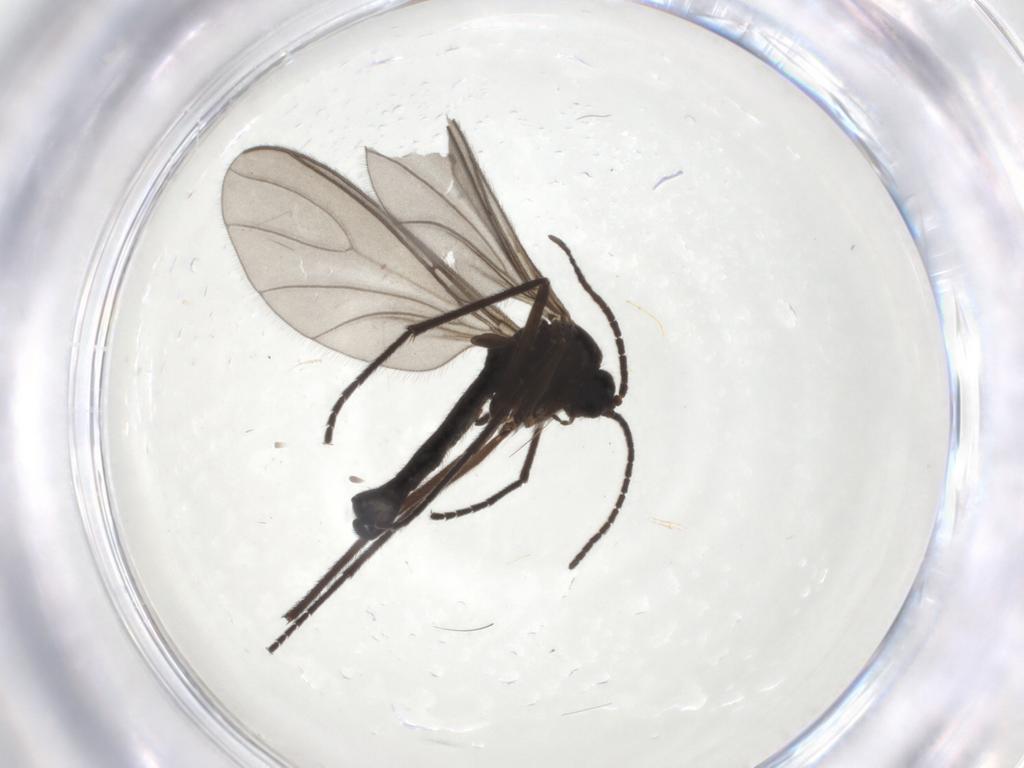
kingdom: Animalia
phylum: Arthropoda
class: Insecta
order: Diptera
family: Sciaridae
